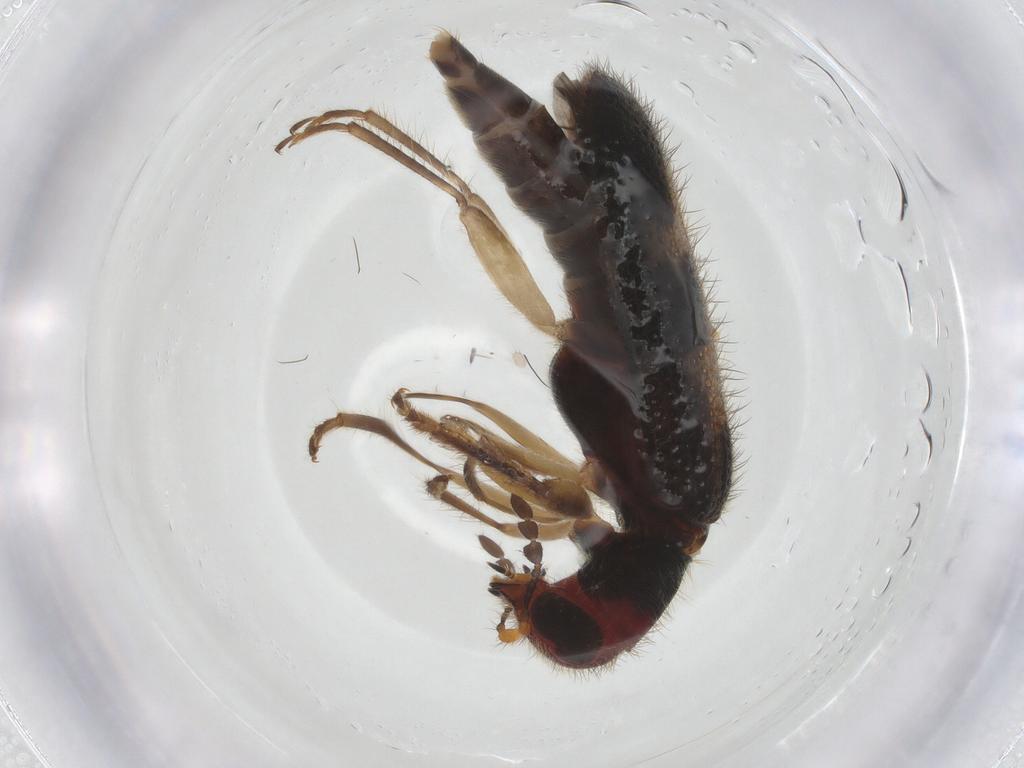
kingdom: Animalia
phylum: Arthropoda
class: Insecta
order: Coleoptera
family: Cleridae
